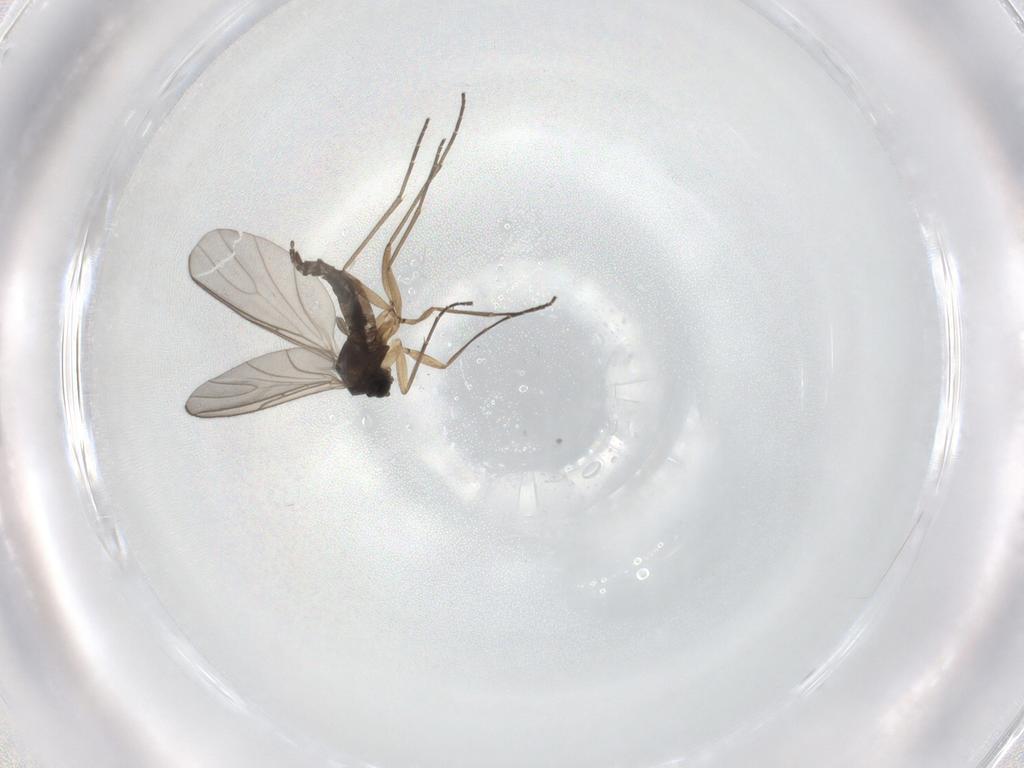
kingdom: Animalia
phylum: Arthropoda
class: Insecta
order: Diptera
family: Sciaridae
